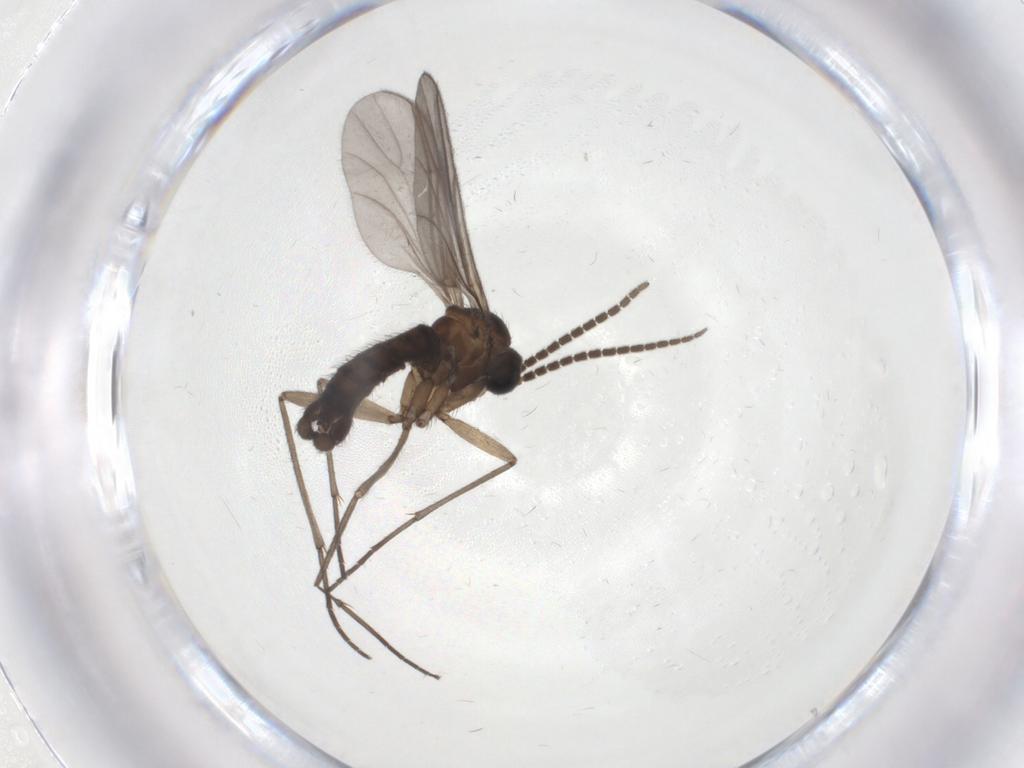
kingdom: Animalia
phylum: Arthropoda
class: Insecta
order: Diptera
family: Sciaridae
